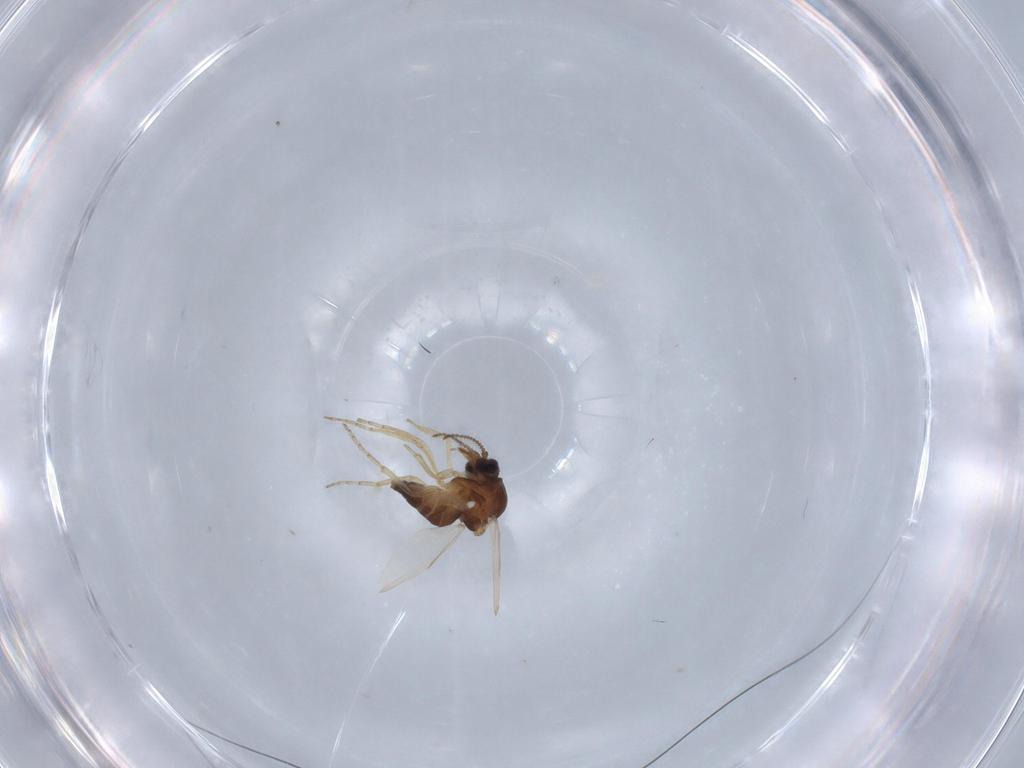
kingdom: Animalia
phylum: Arthropoda
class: Insecta
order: Diptera
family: Ceratopogonidae
